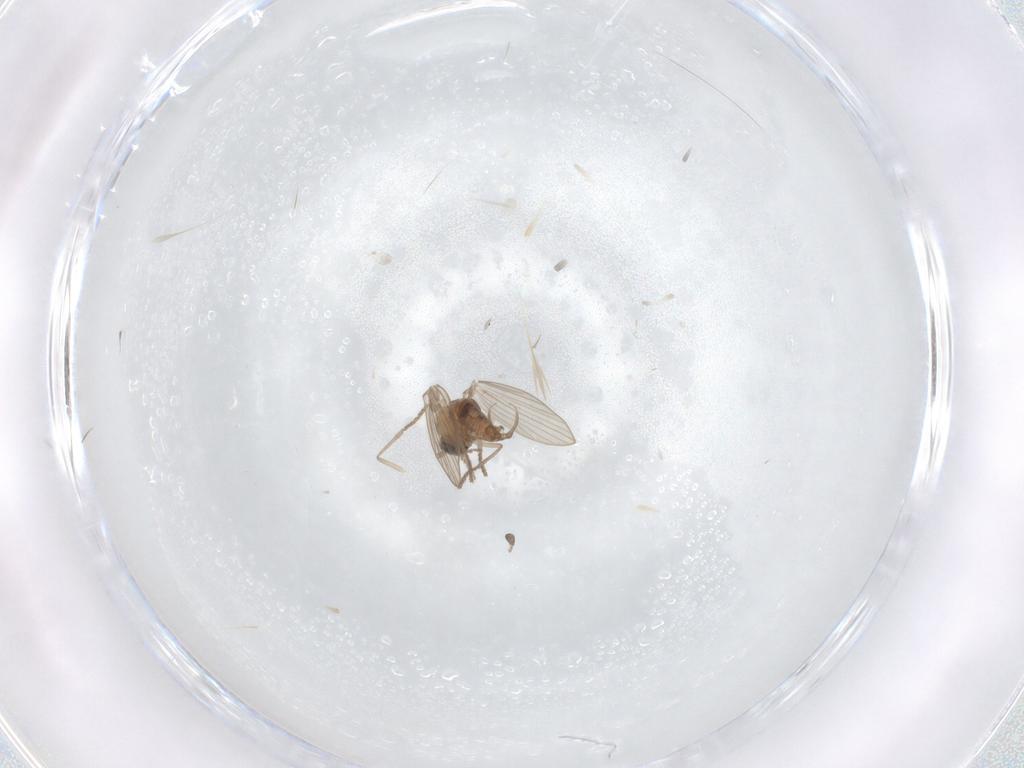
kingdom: Animalia
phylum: Arthropoda
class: Insecta
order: Diptera
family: Psychodidae
